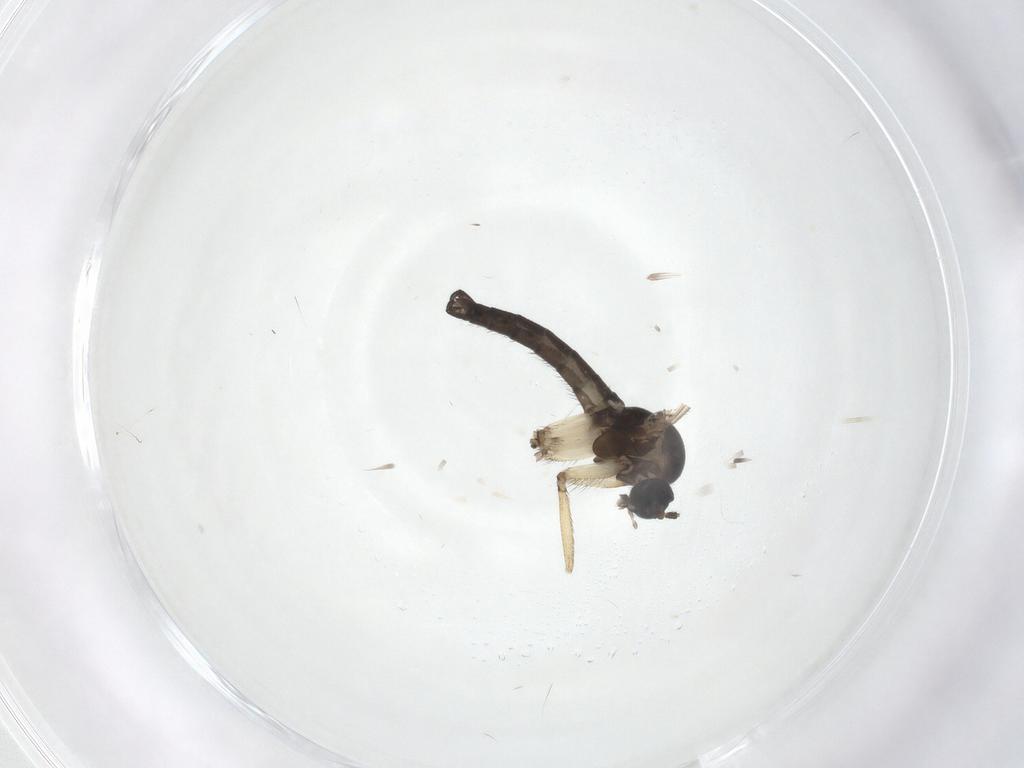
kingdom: Animalia
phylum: Arthropoda
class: Insecta
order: Diptera
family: Sciaridae
